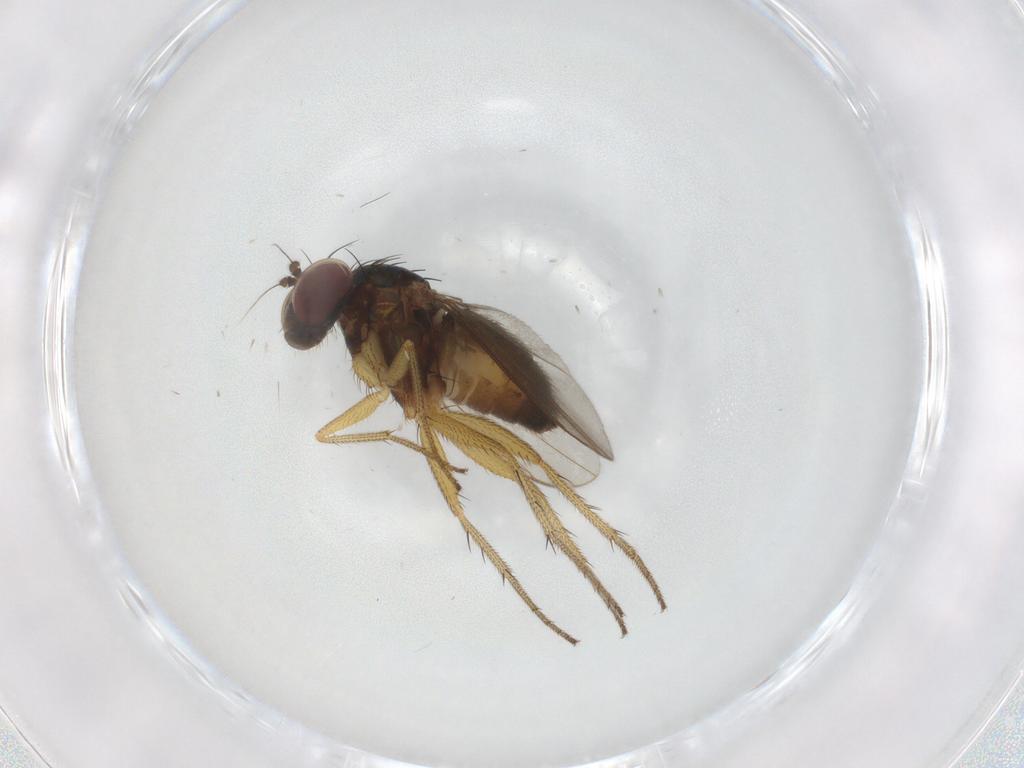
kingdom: Animalia
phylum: Arthropoda
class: Insecta
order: Diptera
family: Dolichopodidae
